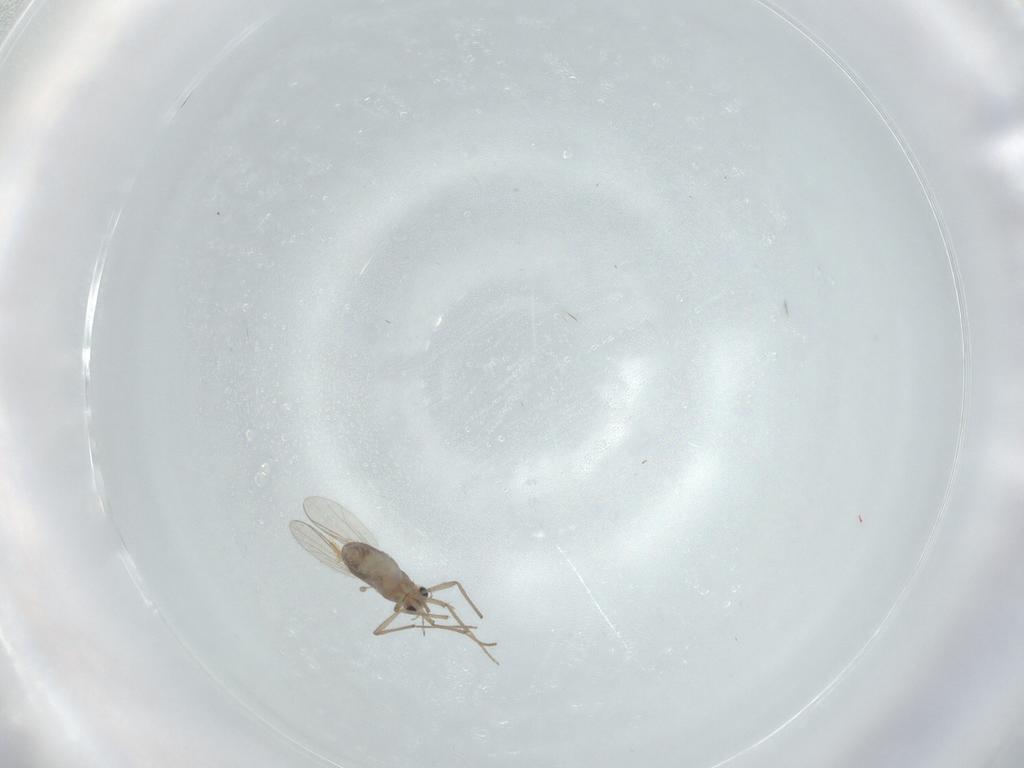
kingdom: Animalia
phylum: Arthropoda
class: Insecta
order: Diptera
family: Chironomidae
